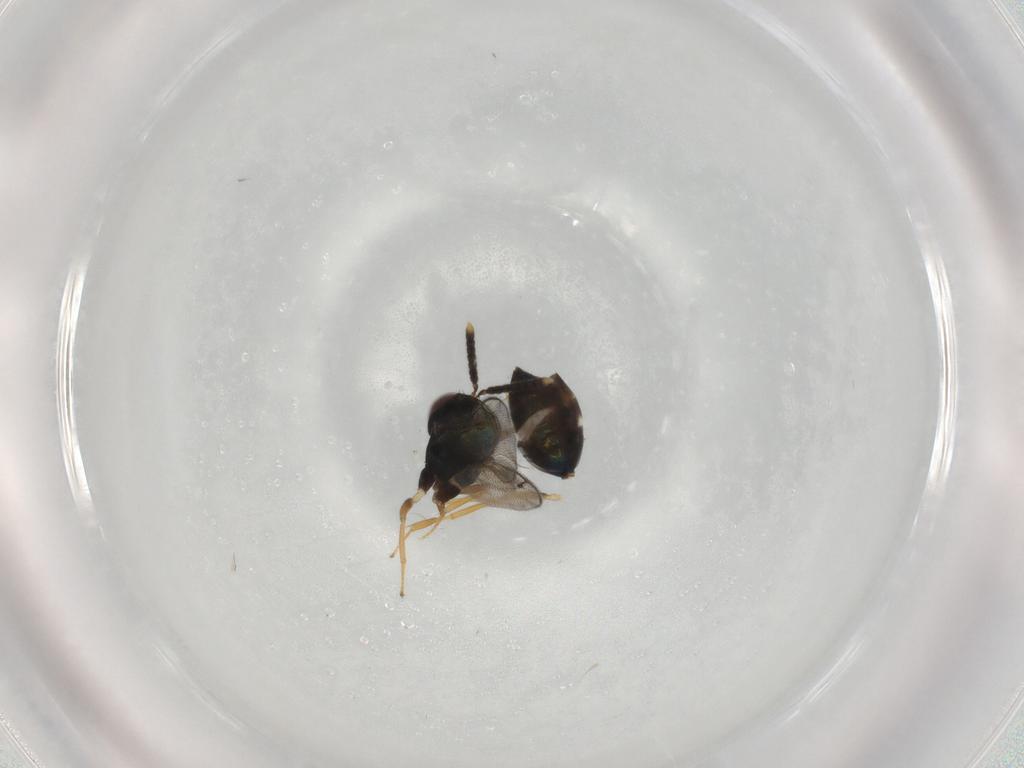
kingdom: Animalia
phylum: Arthropoda
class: Insecta
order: Hymenoptera
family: Pirenidae
